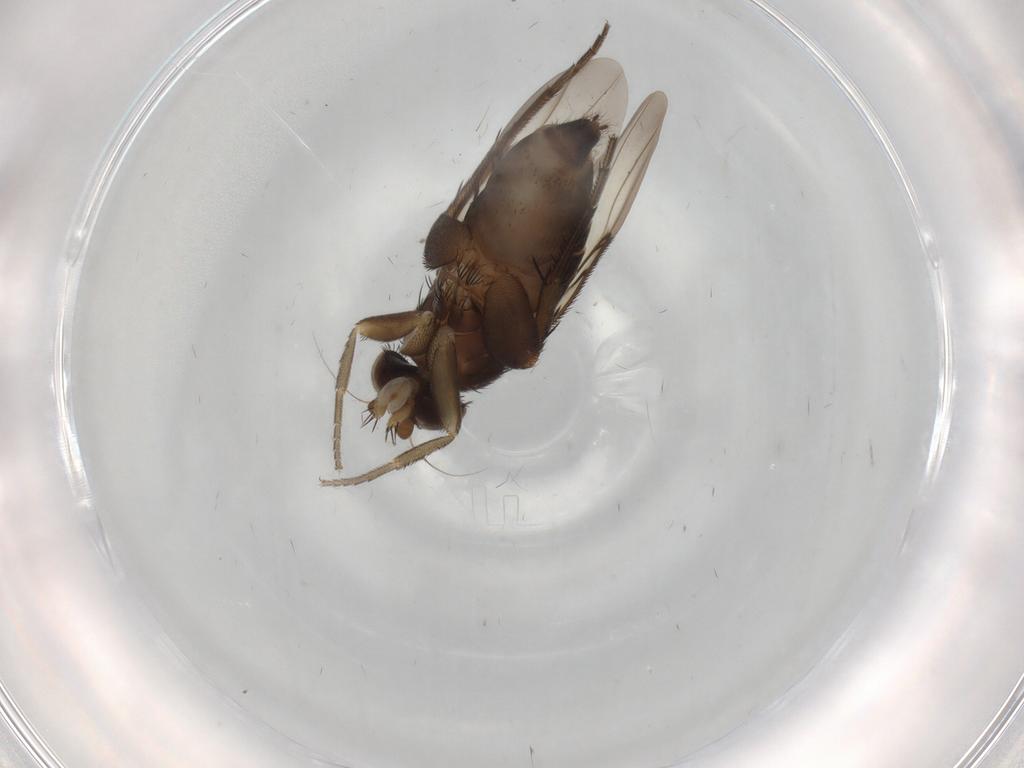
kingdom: Animalia
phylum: Arthropoda
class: Insecta
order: Diptera
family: Phoridae
